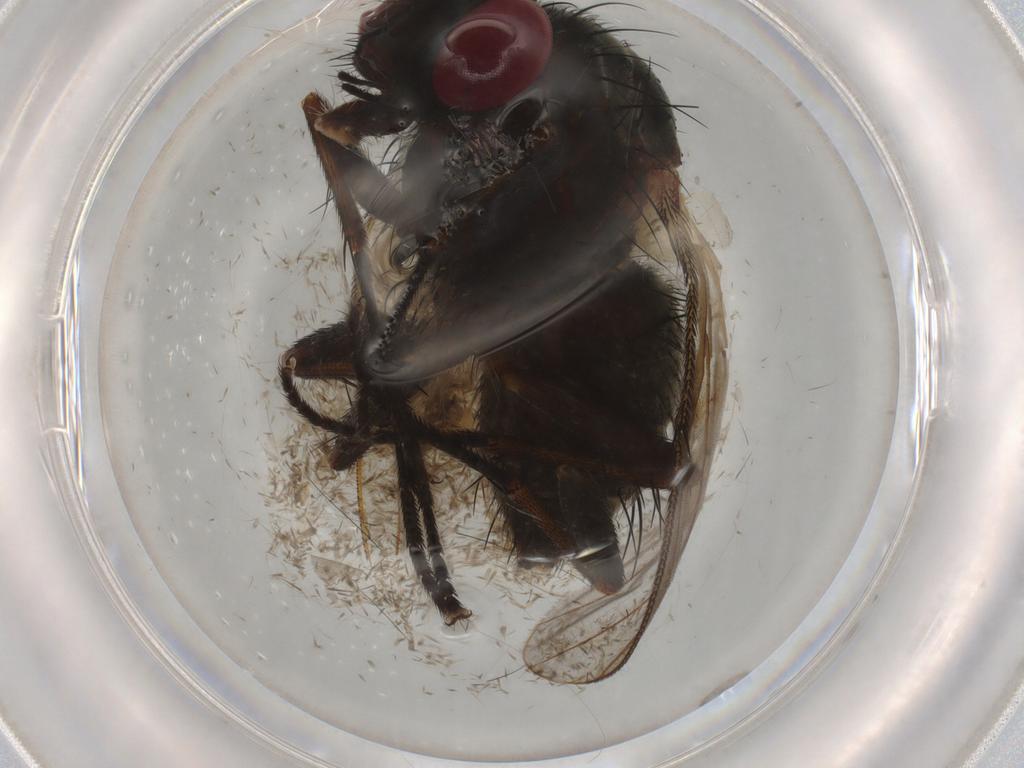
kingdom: Animalia
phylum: Arthropoda
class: Insecta
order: Diptera
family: Muscidae
